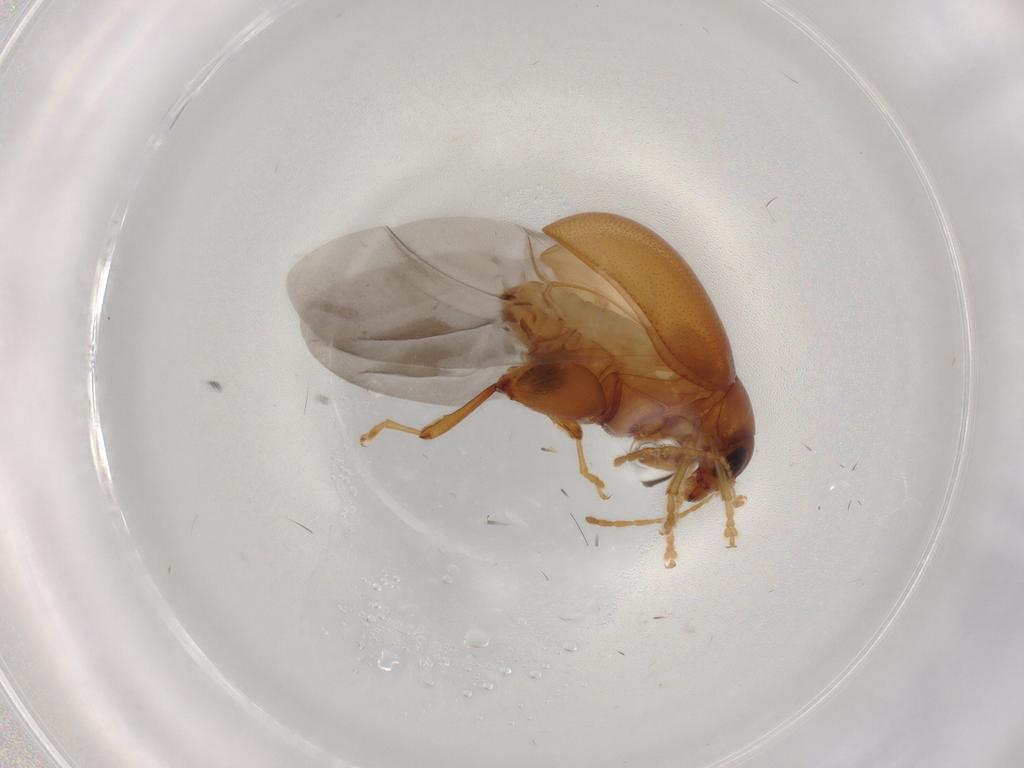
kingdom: Animalia
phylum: Arthropoda
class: Insecta
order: Coleoptera
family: Chrysomelidae
